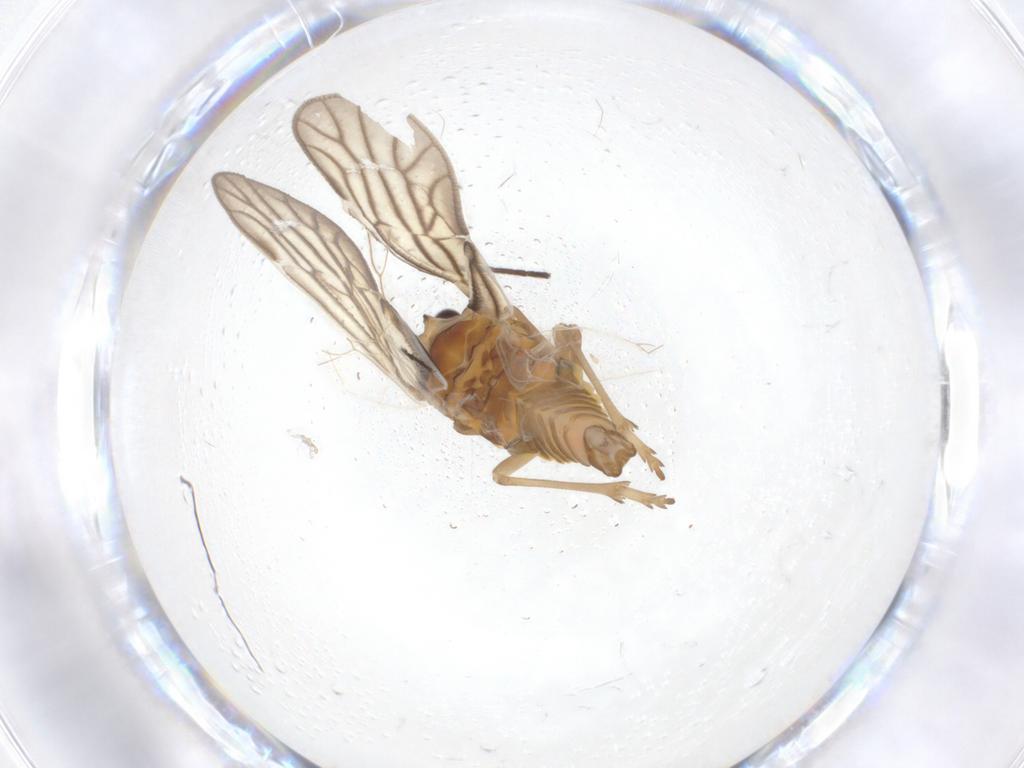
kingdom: Animalia
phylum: Arthropoda
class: Insecta
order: Hemiptera
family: Meenoplidae
